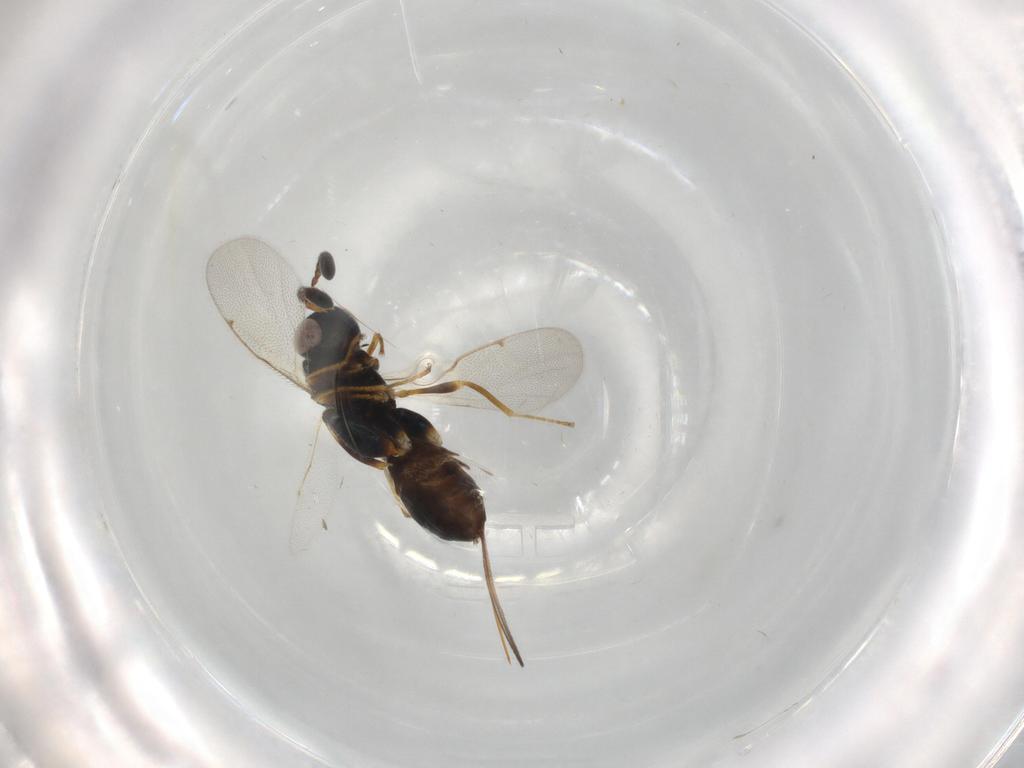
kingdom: Animalia
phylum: Arthropoda
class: Insecta
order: Hymenoptera
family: Torymidae
